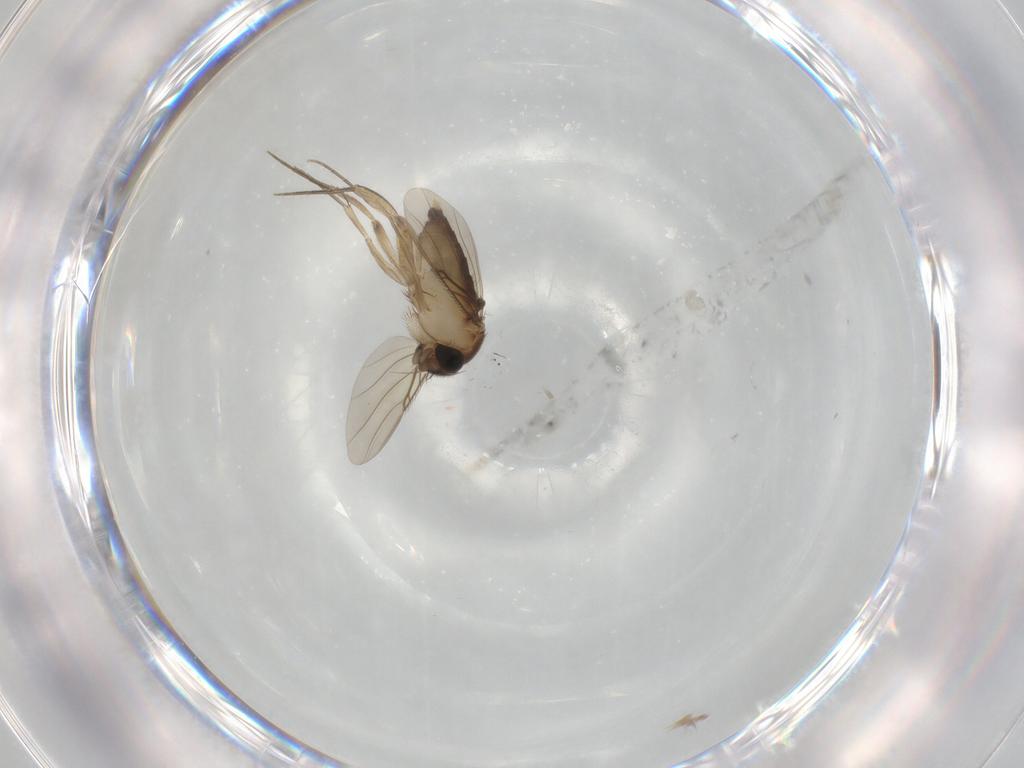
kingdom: Animalia
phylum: Arthropoda
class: Insecta
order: Diptera
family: Phoridae
